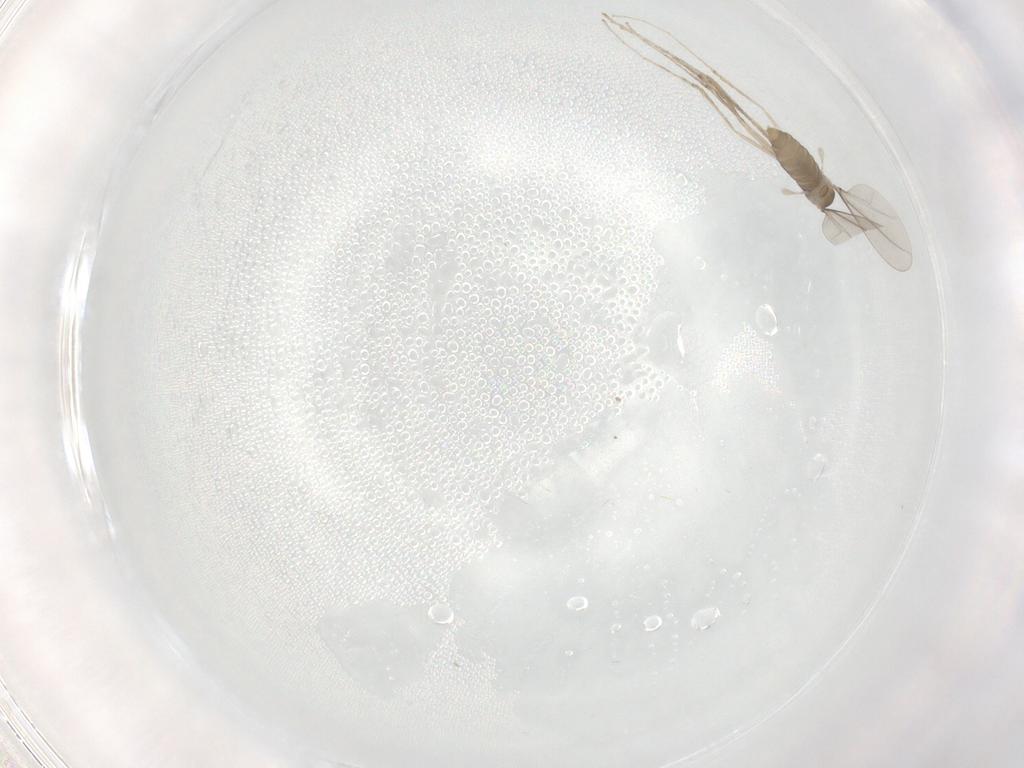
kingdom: Animalia
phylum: Arthropoda
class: Insecta
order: Diptera
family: Cecidomyiidae
